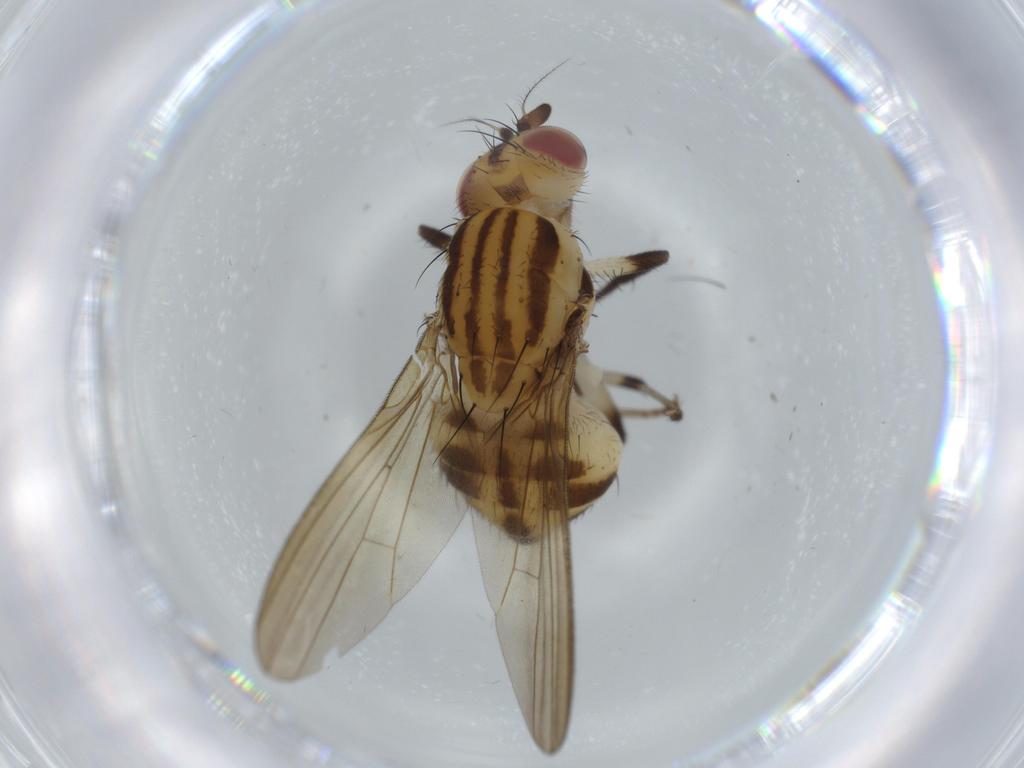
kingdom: Animalia
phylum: Arthropoda
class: Insecta
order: Diptera
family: Lauxaniidae
